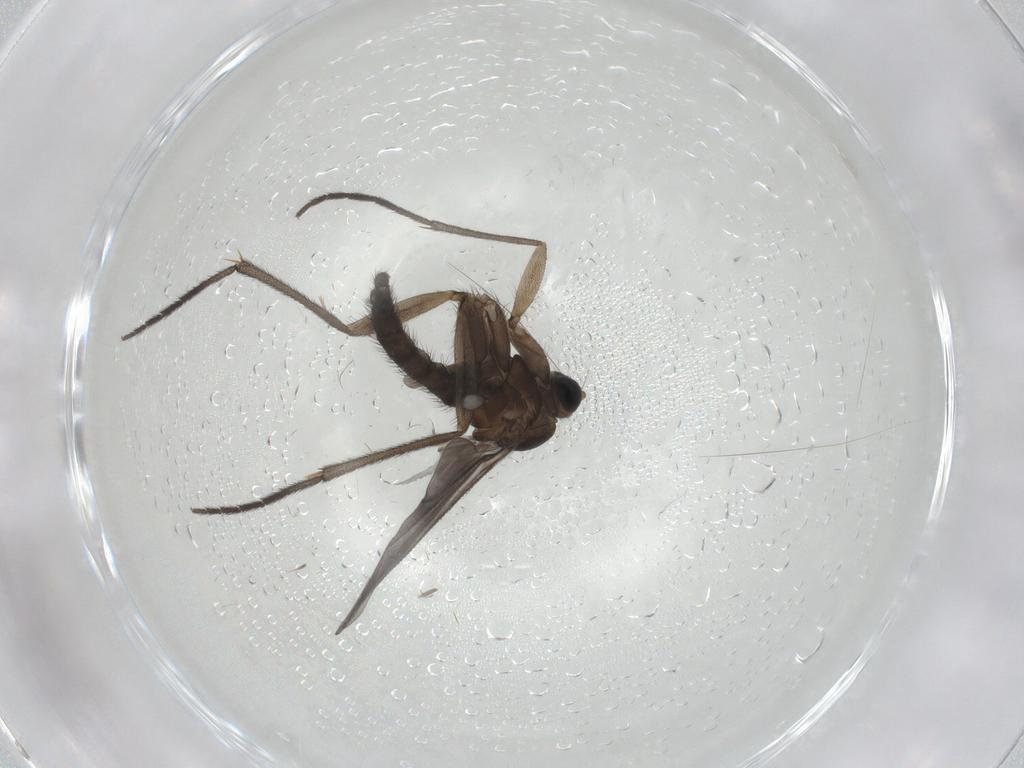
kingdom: Animalia
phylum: Arthropoda
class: Insecta
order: Diptera
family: Sciaridae
